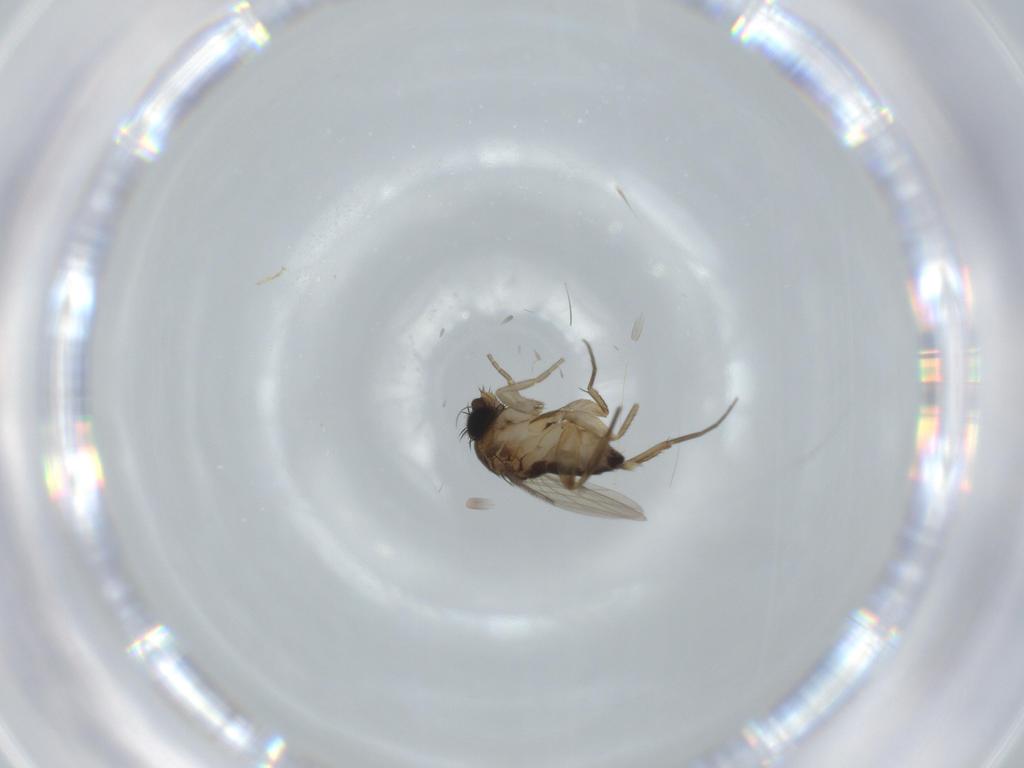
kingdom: Animalia
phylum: Arthropoda
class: Insecta
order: Diptera
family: Phoridae
